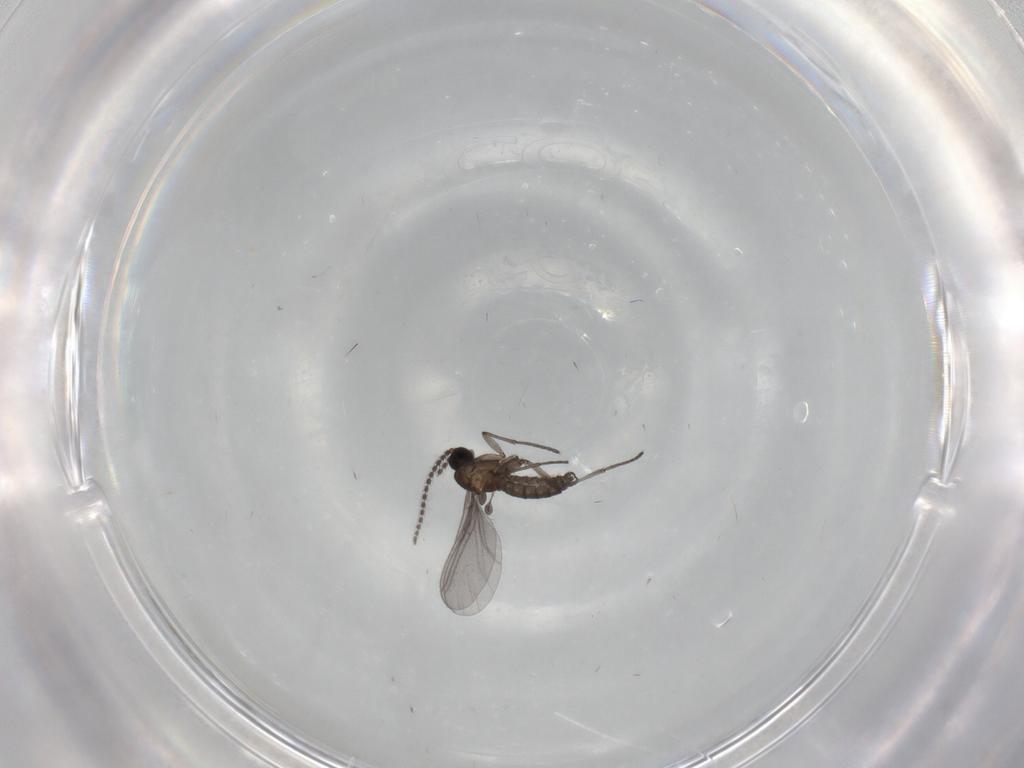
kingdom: Animalia
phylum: Arthropoda
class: Insecta
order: Diptera
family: Sciaridae
